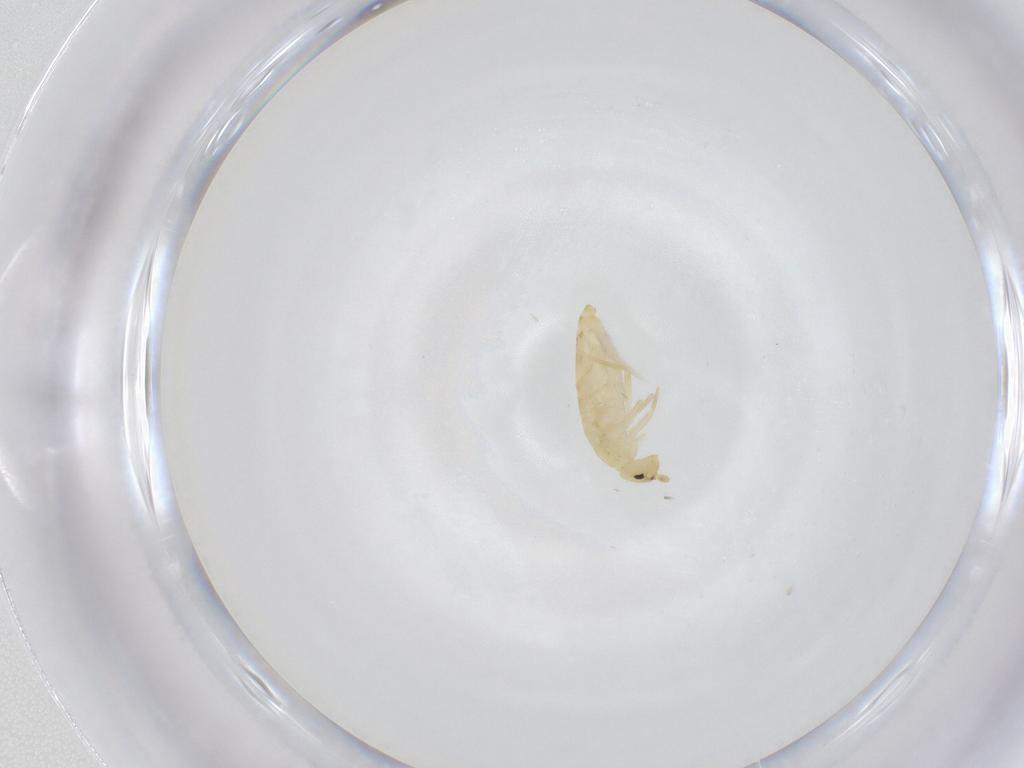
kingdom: Animalia
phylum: Arthropoda
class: Collembola
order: Entomobryomorpha
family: Entomobryidae
